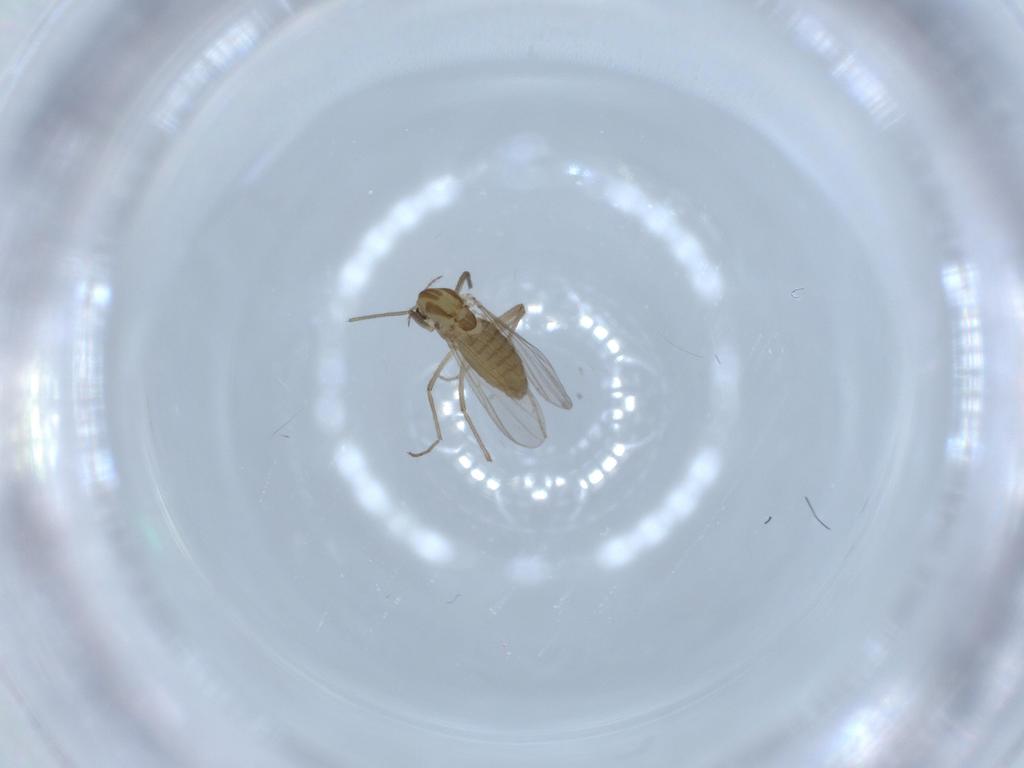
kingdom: Animalia
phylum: Arthropoda
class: Insecta
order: Diptera
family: Chironomidae
